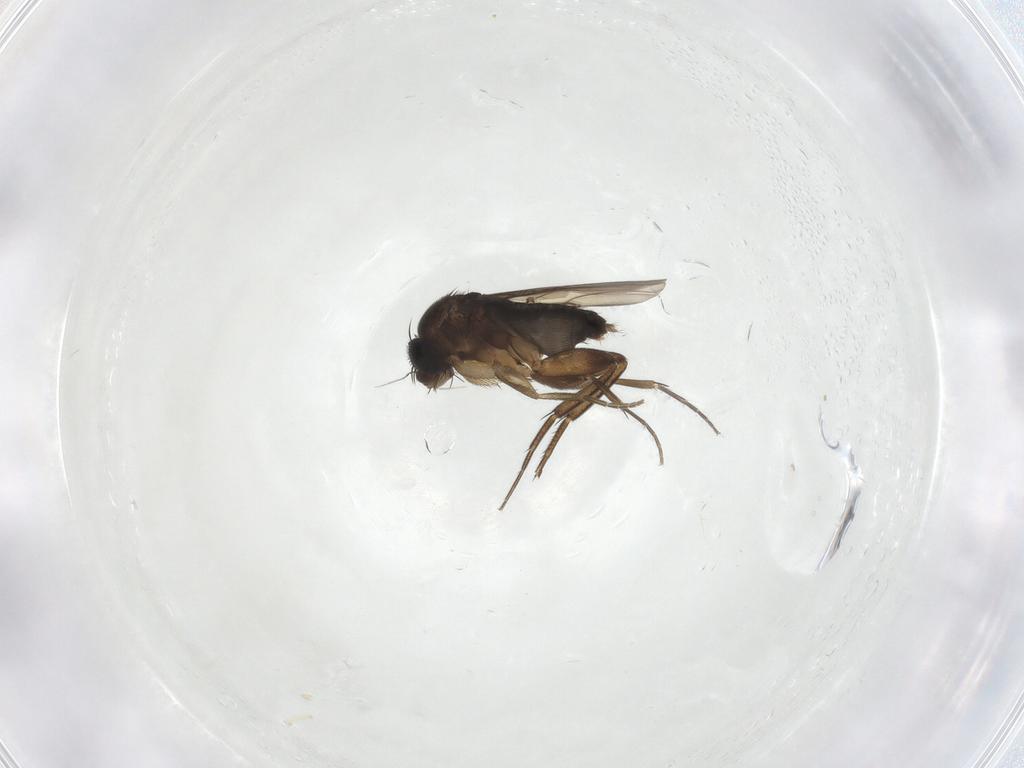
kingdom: Animalia
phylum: Arthropoda
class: Insecta
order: Diptera
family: Phoridae
